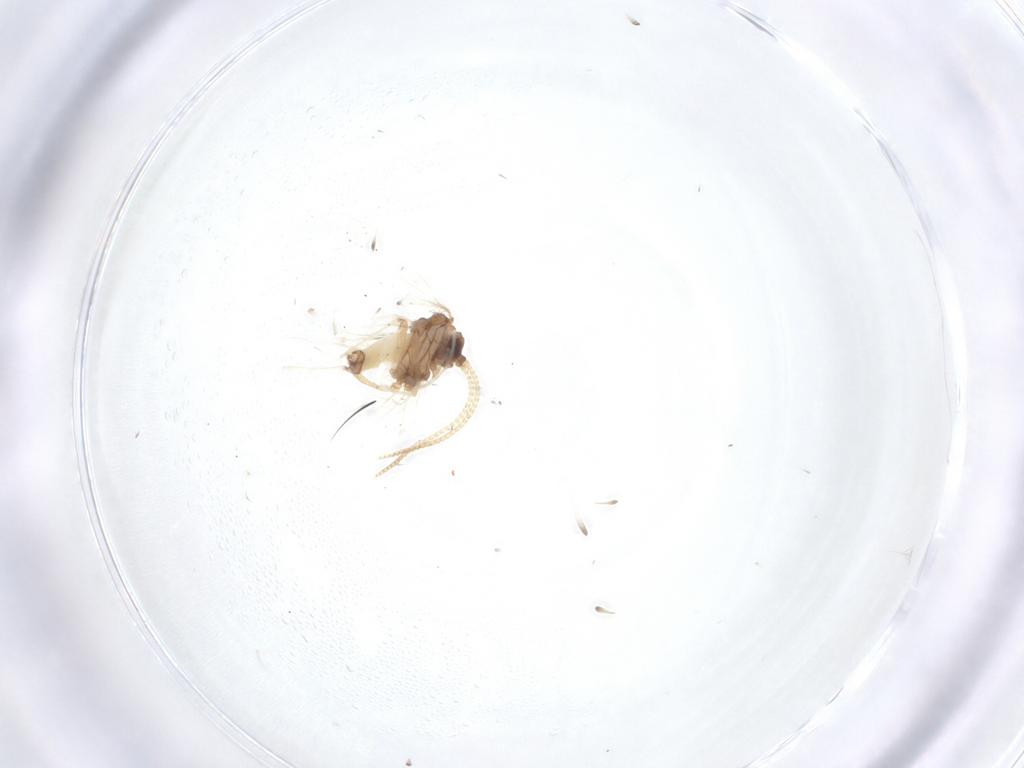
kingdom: Animalia
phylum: Arthropoda
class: Insecta
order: Neuroptera
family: Coniopterygidae
